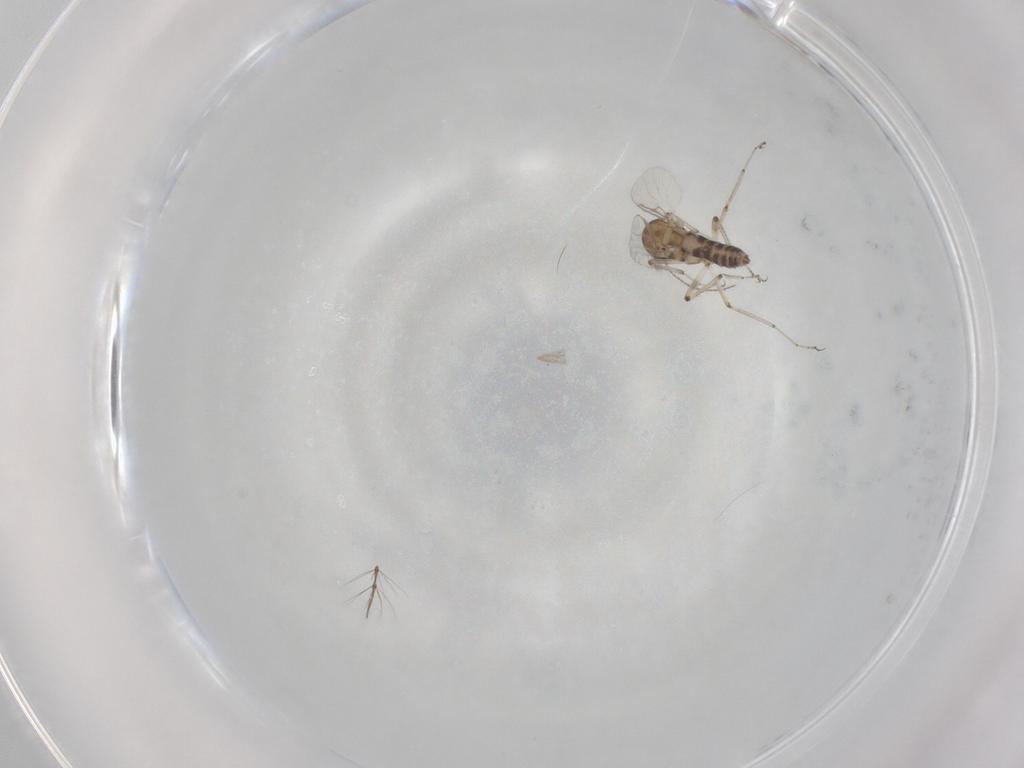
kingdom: Animalia
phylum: Arthropoda
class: Insecta
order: Diptera
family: Ceratopogonidae
